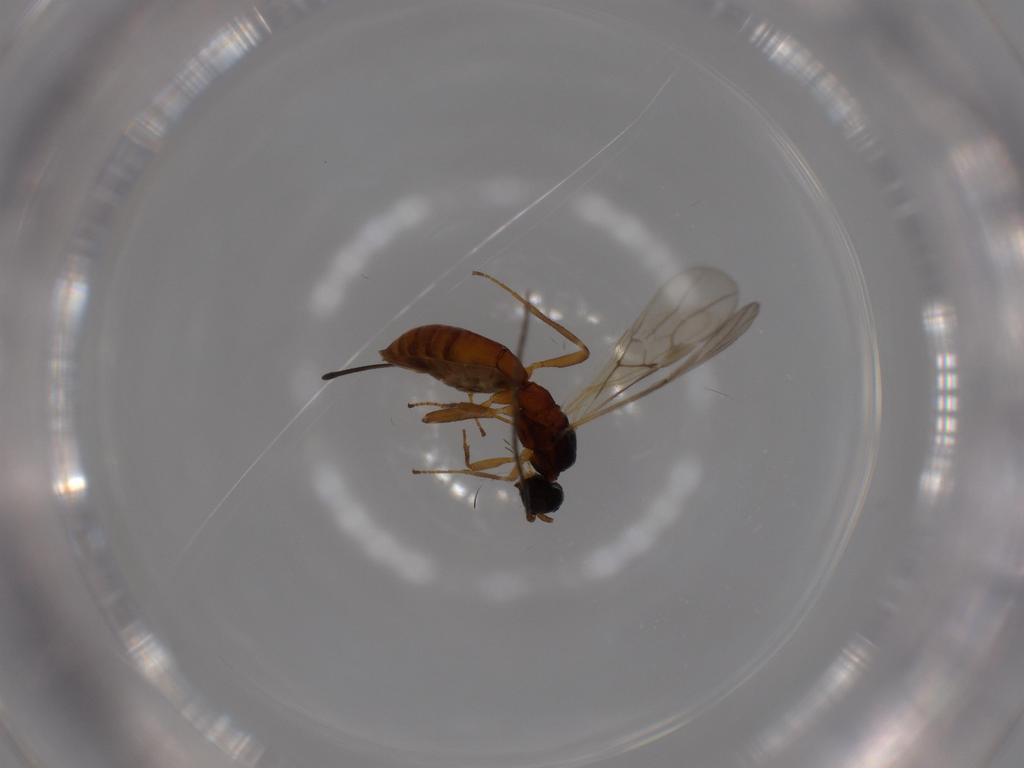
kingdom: Animalia
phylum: Arthropoda
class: Insecta
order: Hymenoptera
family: Braconidae
